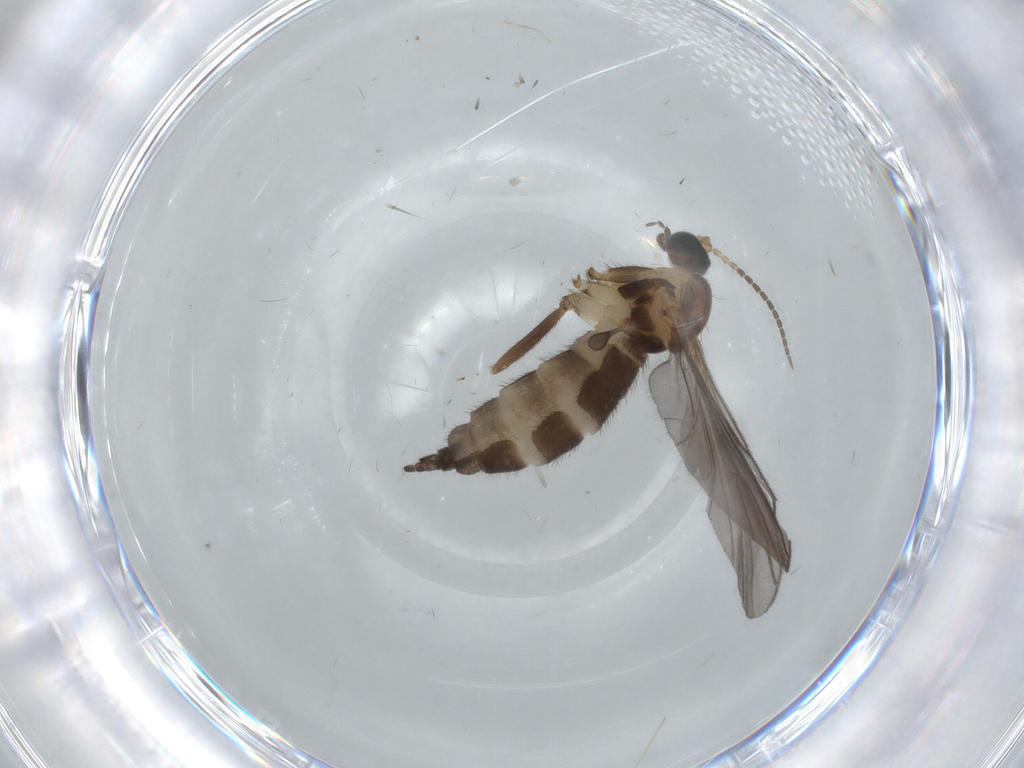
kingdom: Animalia
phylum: Arthropoda
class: Insecta
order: Diptera
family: Sciaridae
